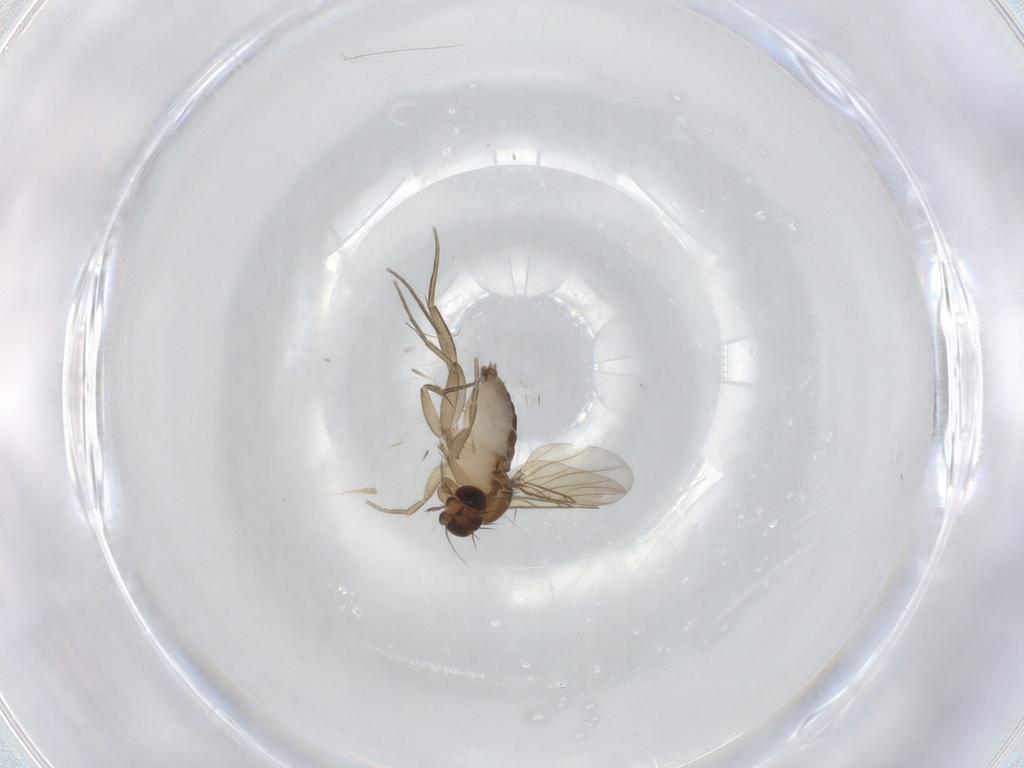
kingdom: Animalia
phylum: Arthropoda
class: Insecta
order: Diptera
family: Phoridae
